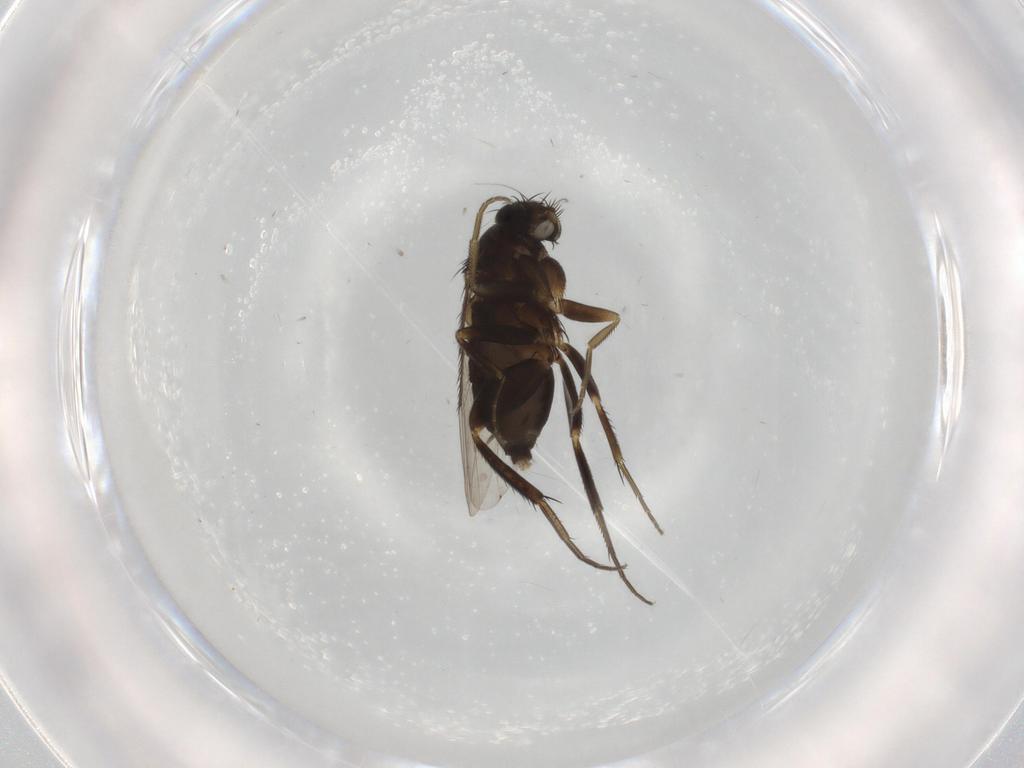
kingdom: Animalia
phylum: Arthropoda
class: Insecta
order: Diptera
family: Phoridae
